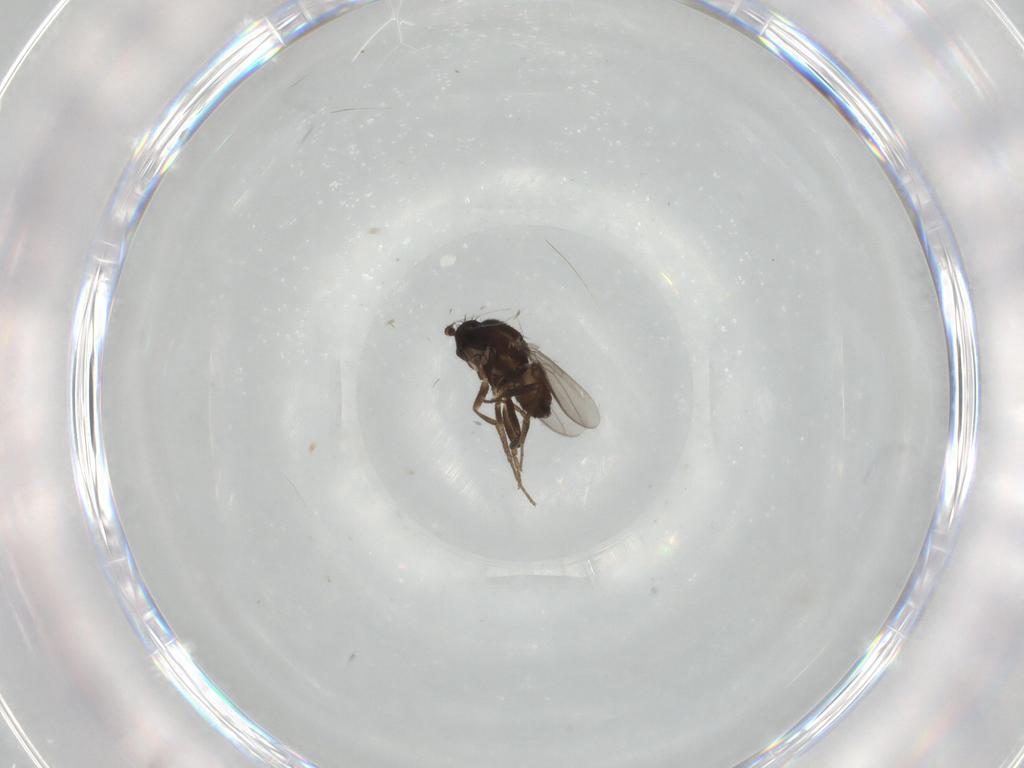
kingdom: Animalia
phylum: Arthropoda
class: Insecta
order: Diptera
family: Sphaeroceridae
